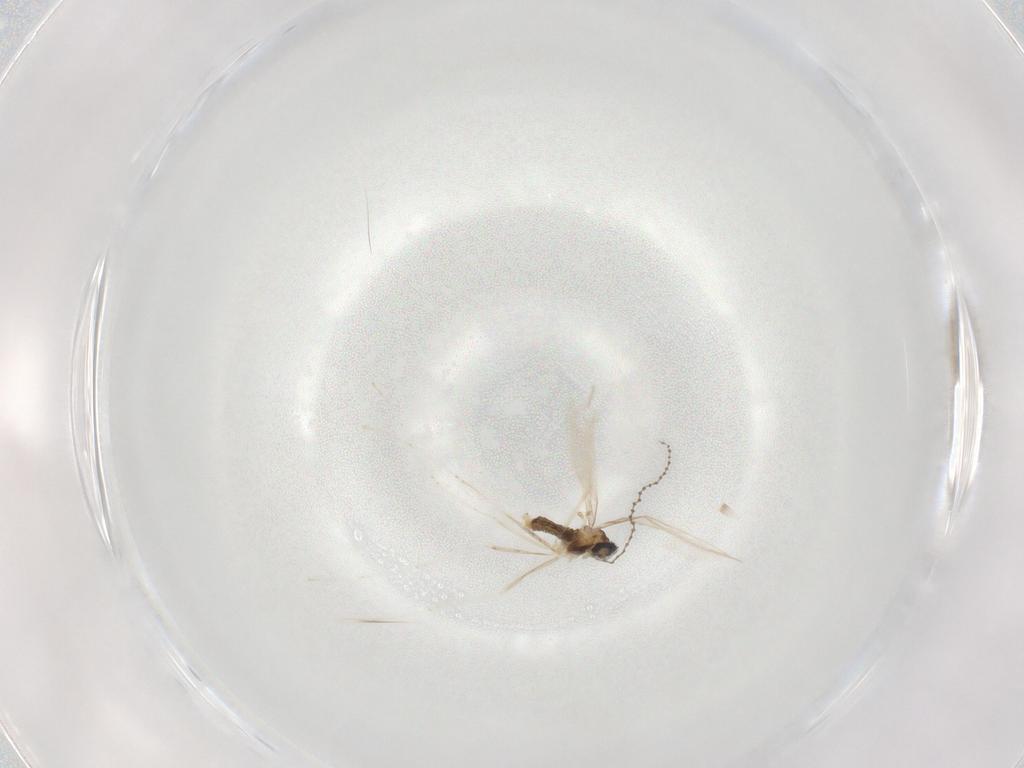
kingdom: Animalia
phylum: Arthropoda
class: Insecta
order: Diptera
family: Cecidomyiidae
